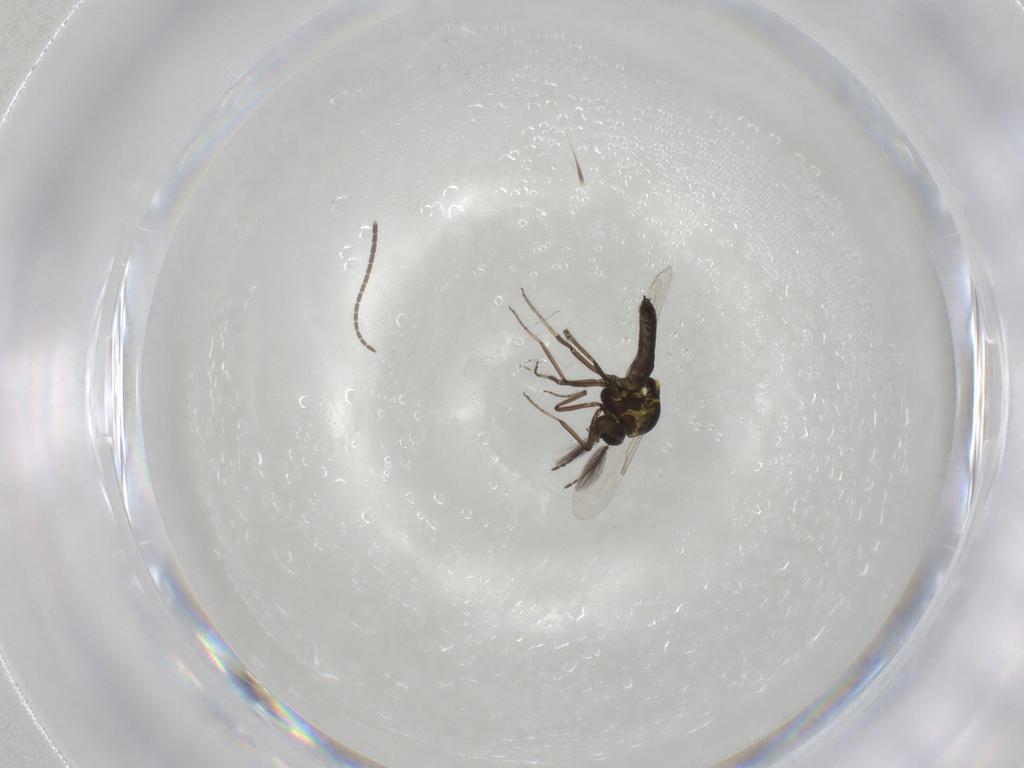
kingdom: Animalia
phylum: Arthropoda
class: Insecta
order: Diptera
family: Ceratopogonidae
